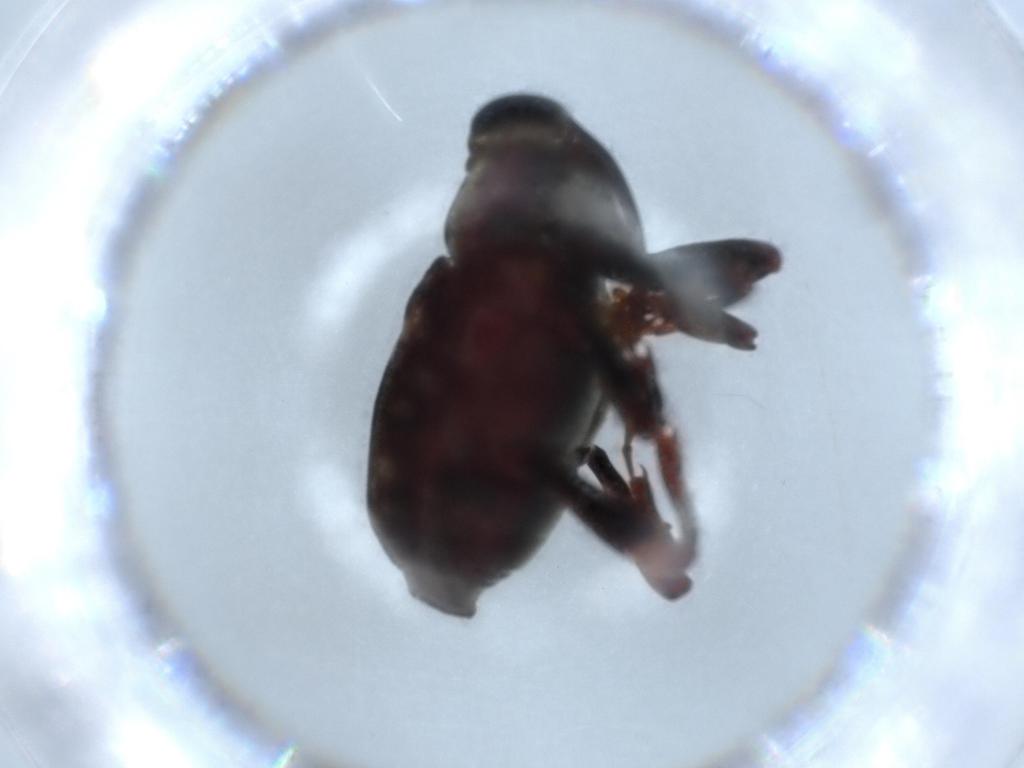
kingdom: Animalia
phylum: Arthropoda
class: Insecta
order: Coleoptera
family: Curculionidae
